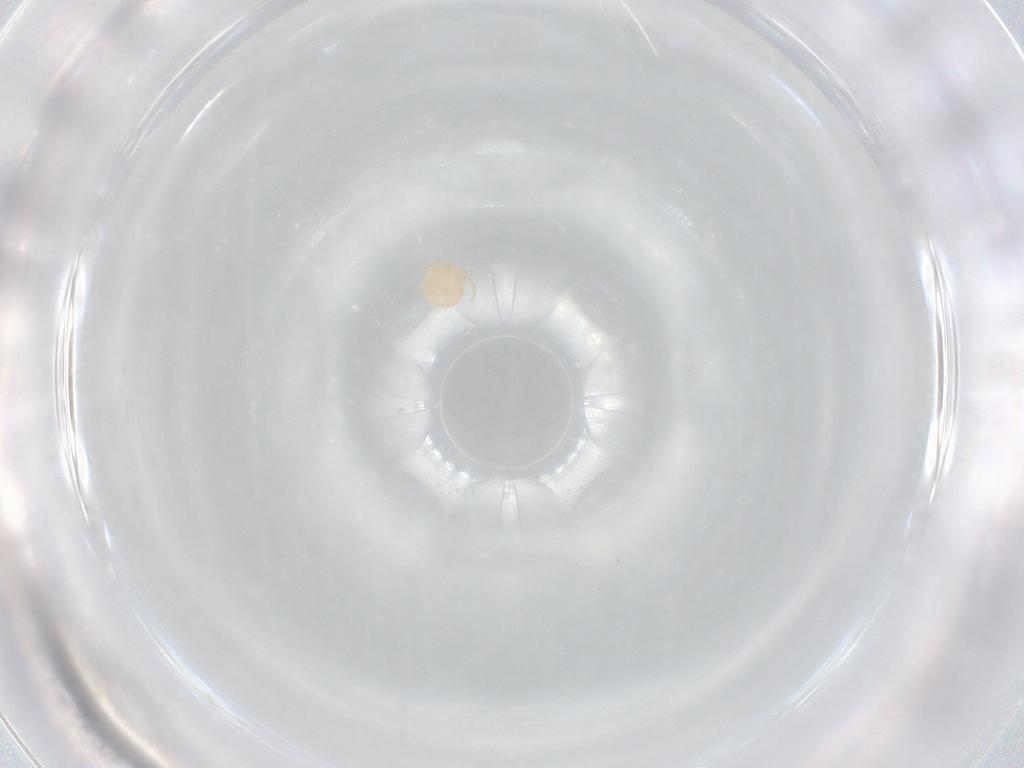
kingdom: Animalia
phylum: Arthropoda
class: Arachnida
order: Trombidiformes
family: Sperchontidae
